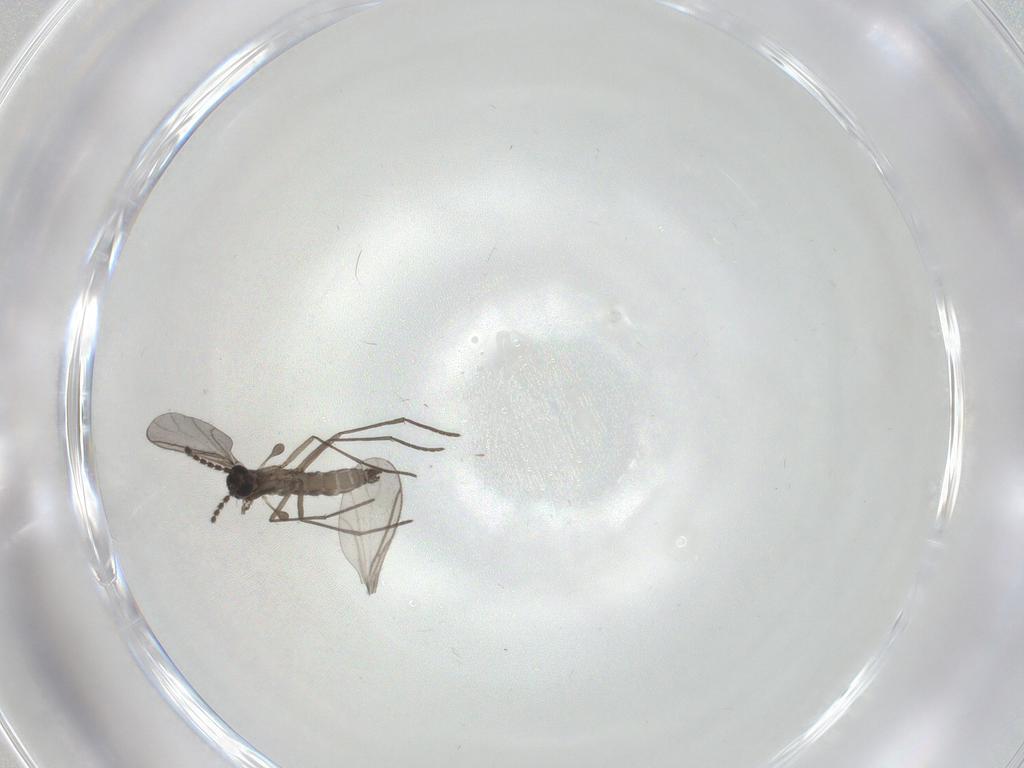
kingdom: Animalia
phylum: Arthropoda
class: Insecta
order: Diptera
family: Sciaridae
